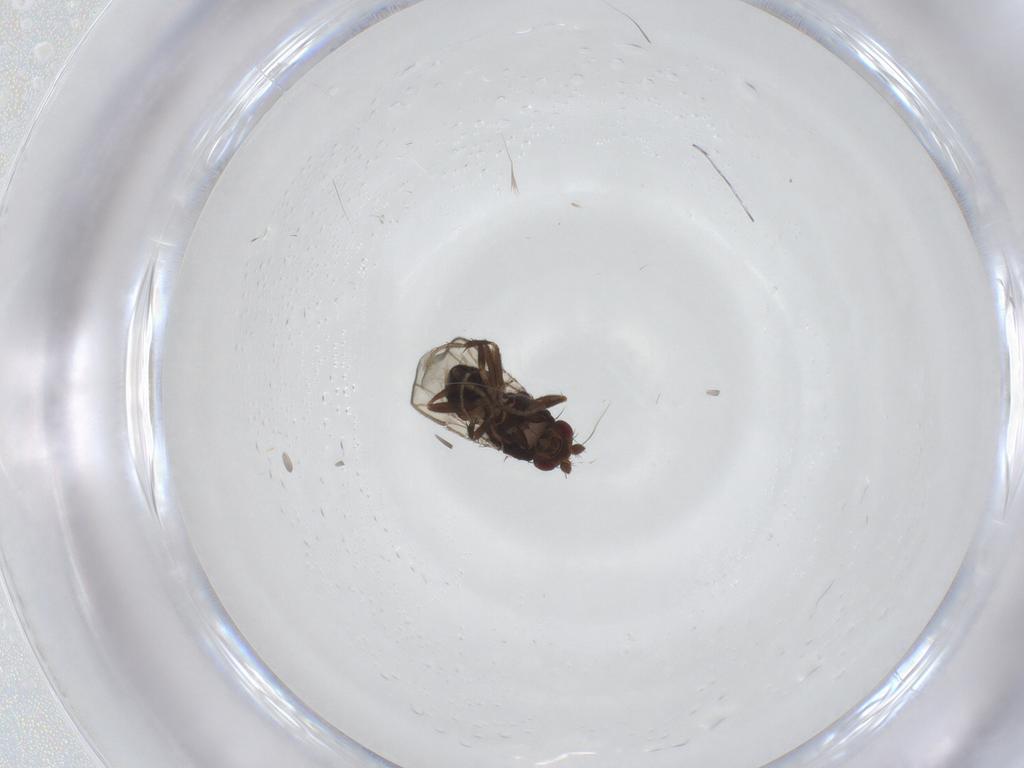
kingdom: Animalia
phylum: Arthropoda
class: Insecta
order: Diptera
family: Sphaeroceridae
